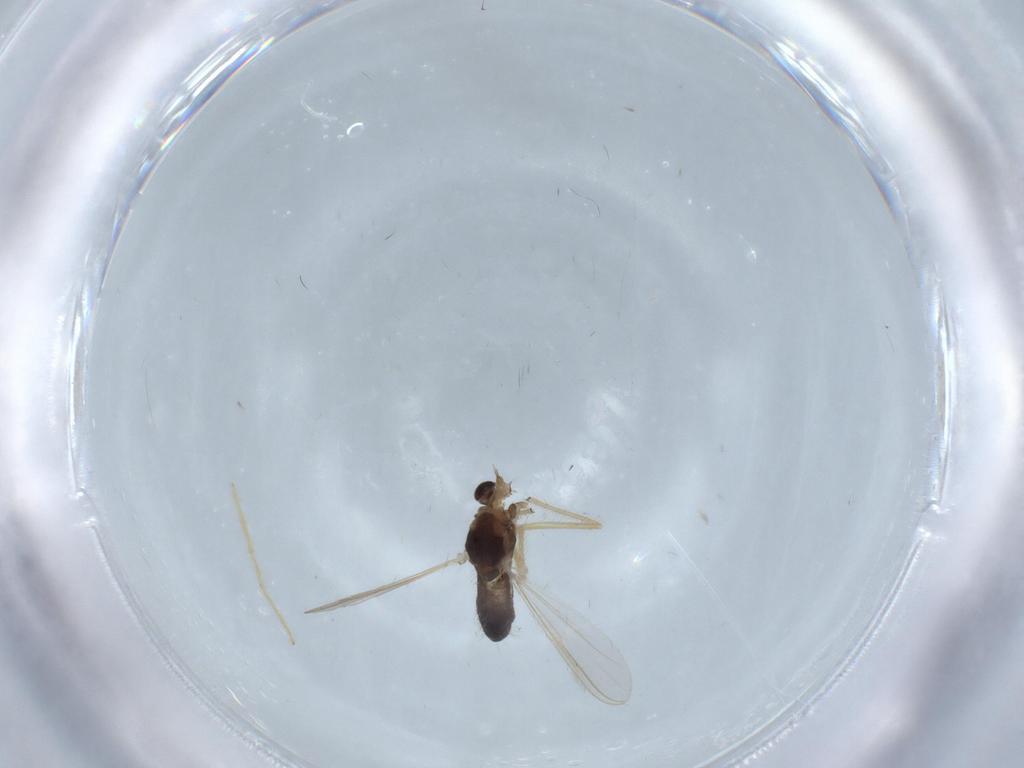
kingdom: Animalia
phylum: Arthropoda
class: Insecta
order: Diptera
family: Chironomidae
